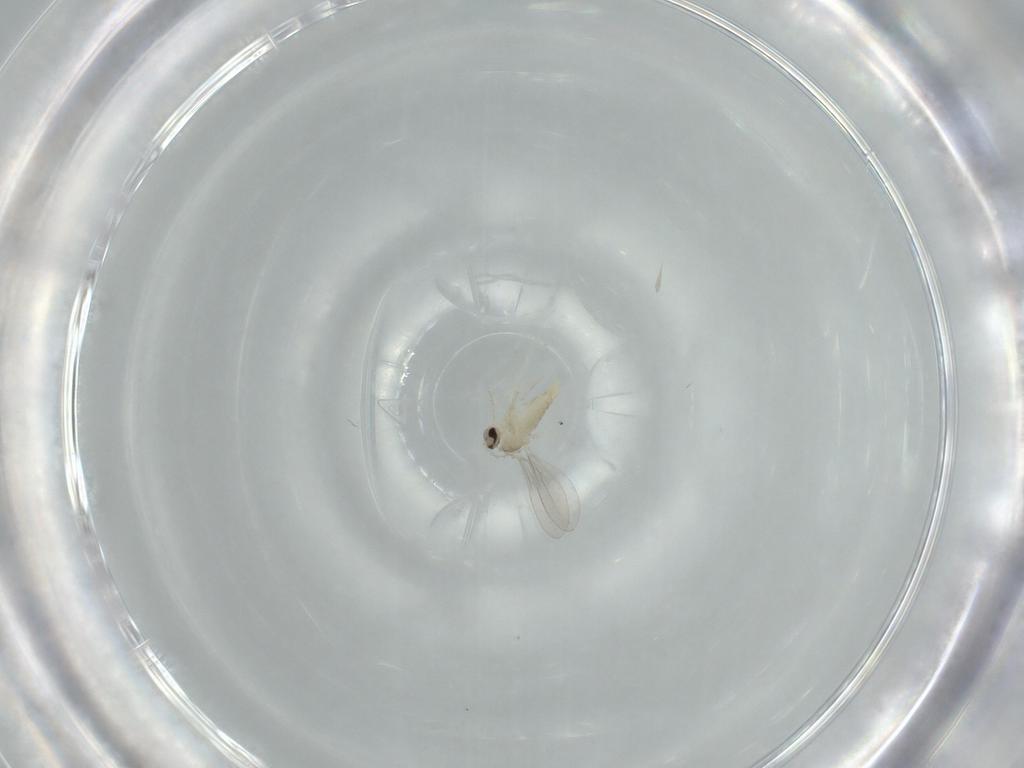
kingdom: Animalia
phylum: Arthropoda
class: Insecta
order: Diptera
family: Cecidomyiidae
